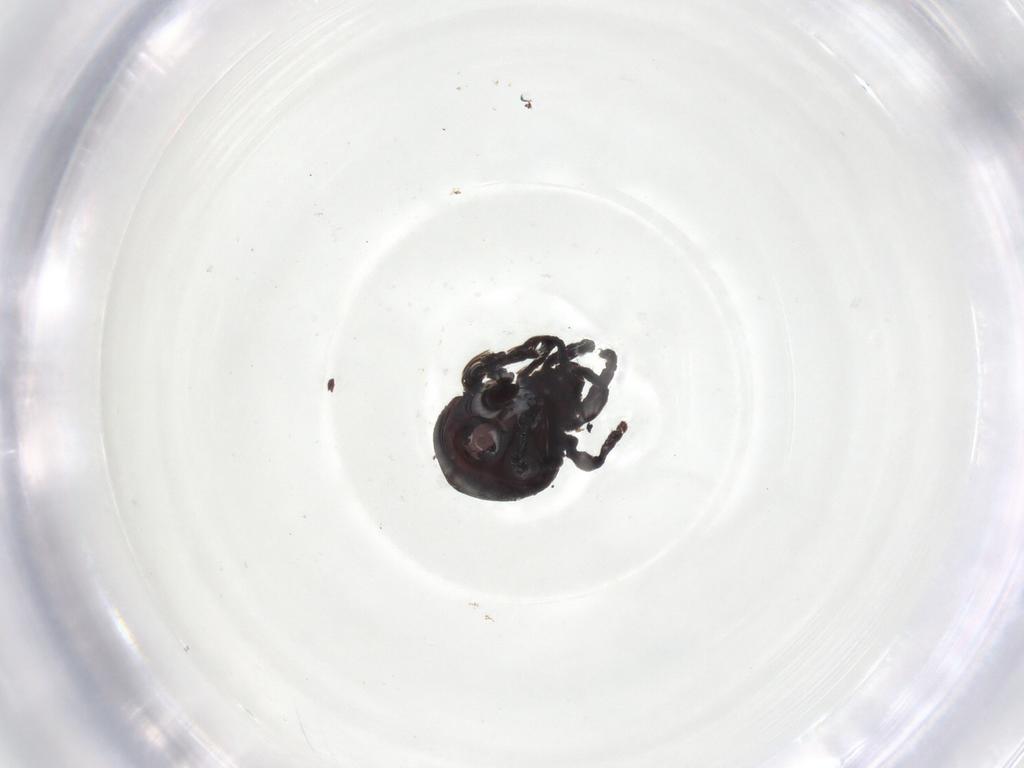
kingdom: Animalia
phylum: Arthropoda
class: Arachnida
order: Sarcoptiformes
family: Neoliodidae
